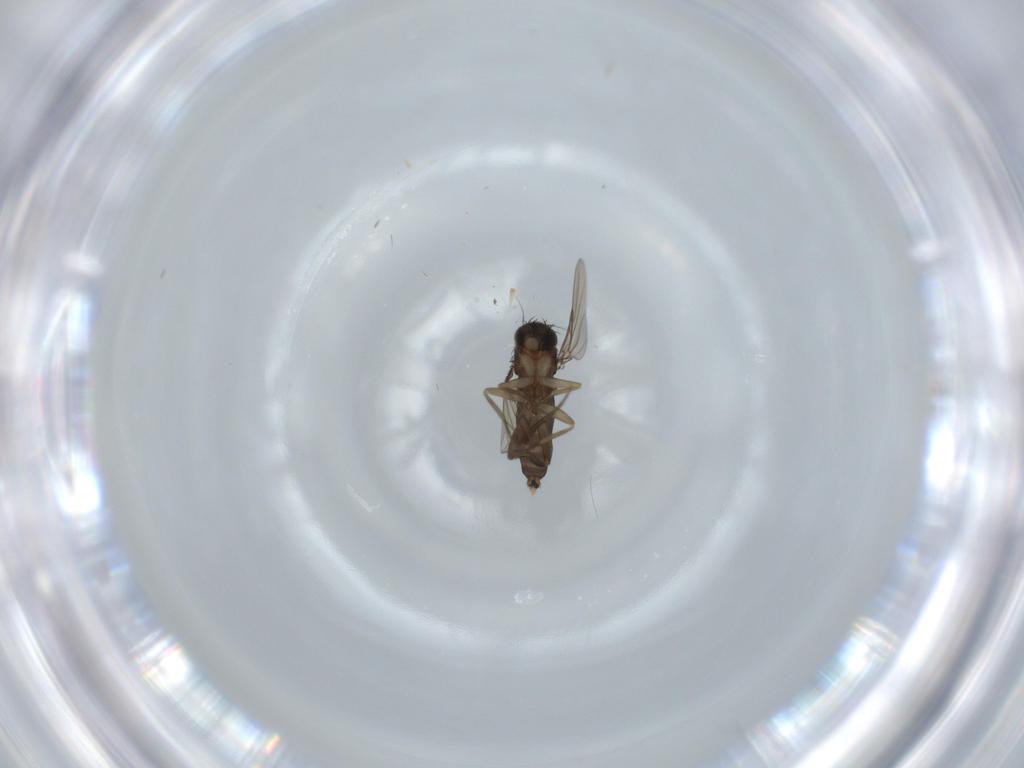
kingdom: Animalia
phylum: Arthropoda
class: Insecta
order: Diptera
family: Phoridae
